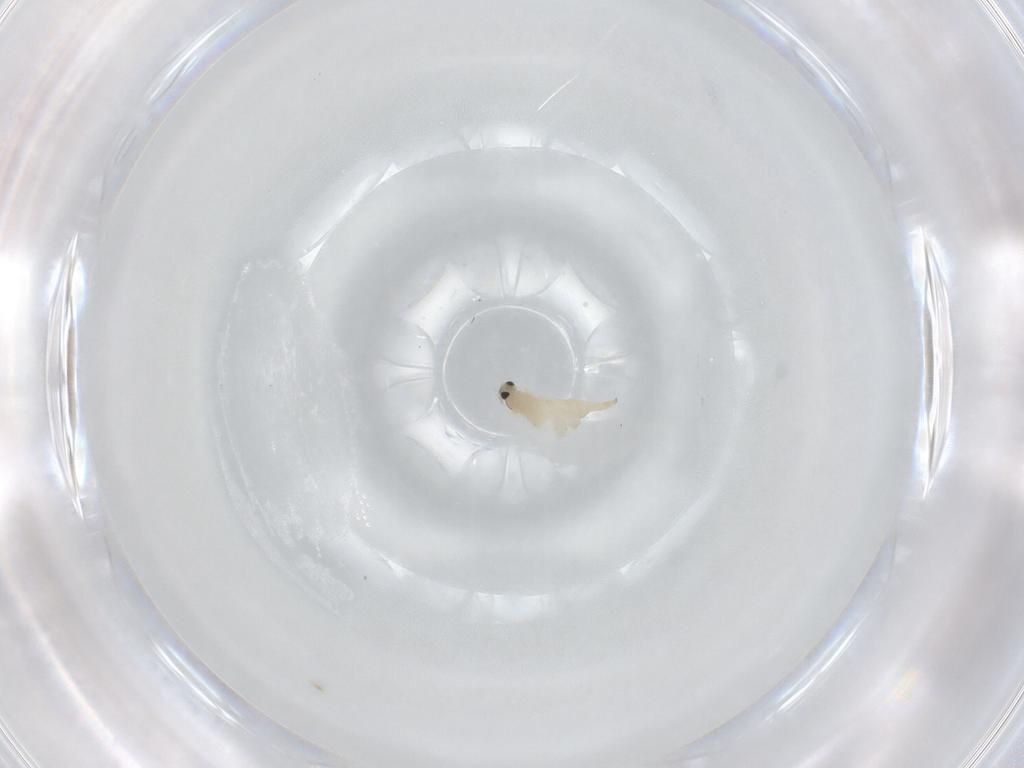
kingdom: Animalia
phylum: Arthropoda
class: Insecta
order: Diptera
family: Cecidomyiidae
